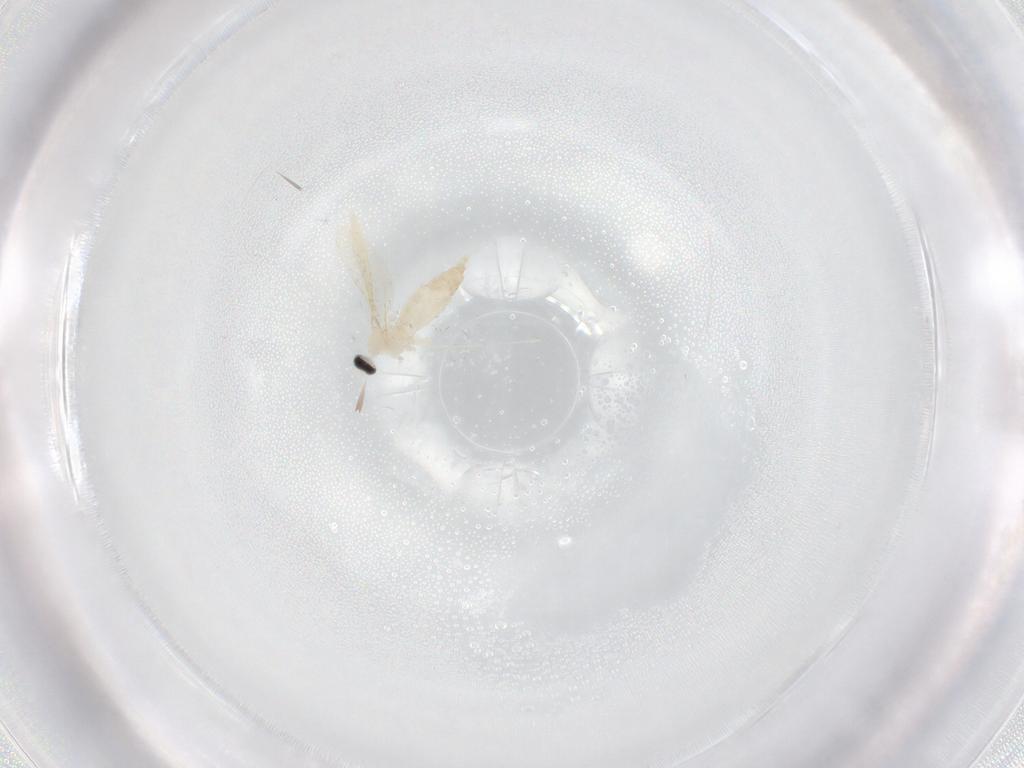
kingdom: Animalia
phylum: Arthropoda
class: Insecta
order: Diptera
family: Cecidomyiidae
